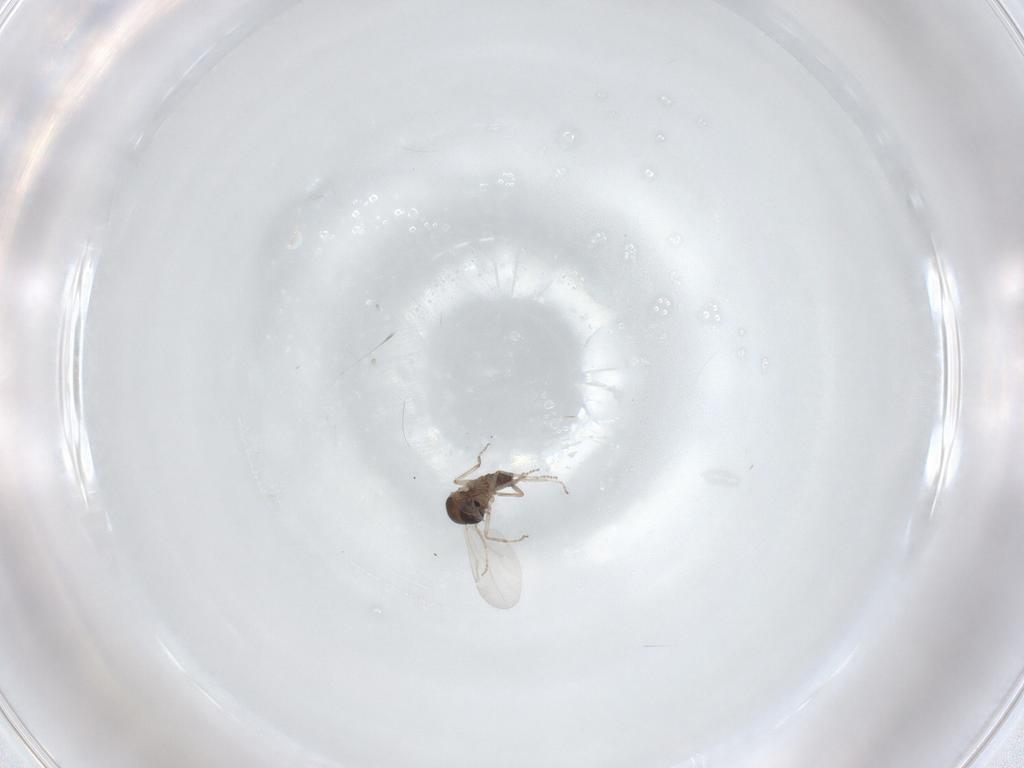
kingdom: Animalia
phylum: Arthropoda
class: Insecta
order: Diptera
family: Ceratopogonidae
